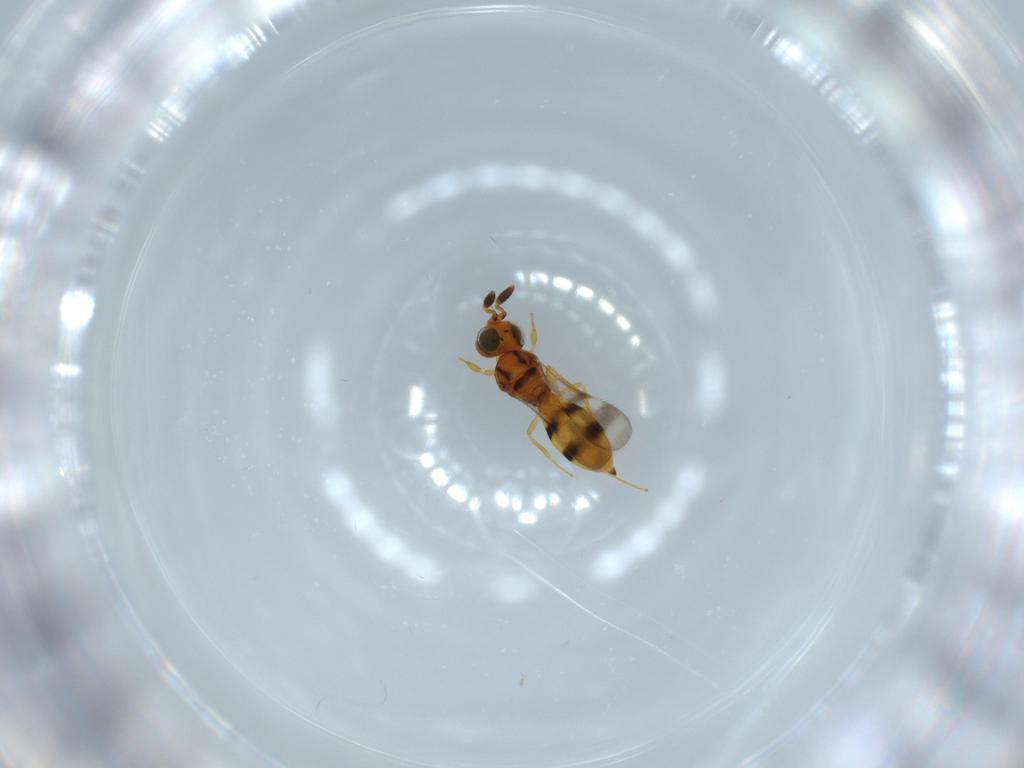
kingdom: Animalia
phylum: Arthropoda
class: Insecta
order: Hymenoptera
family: Scelionidae
